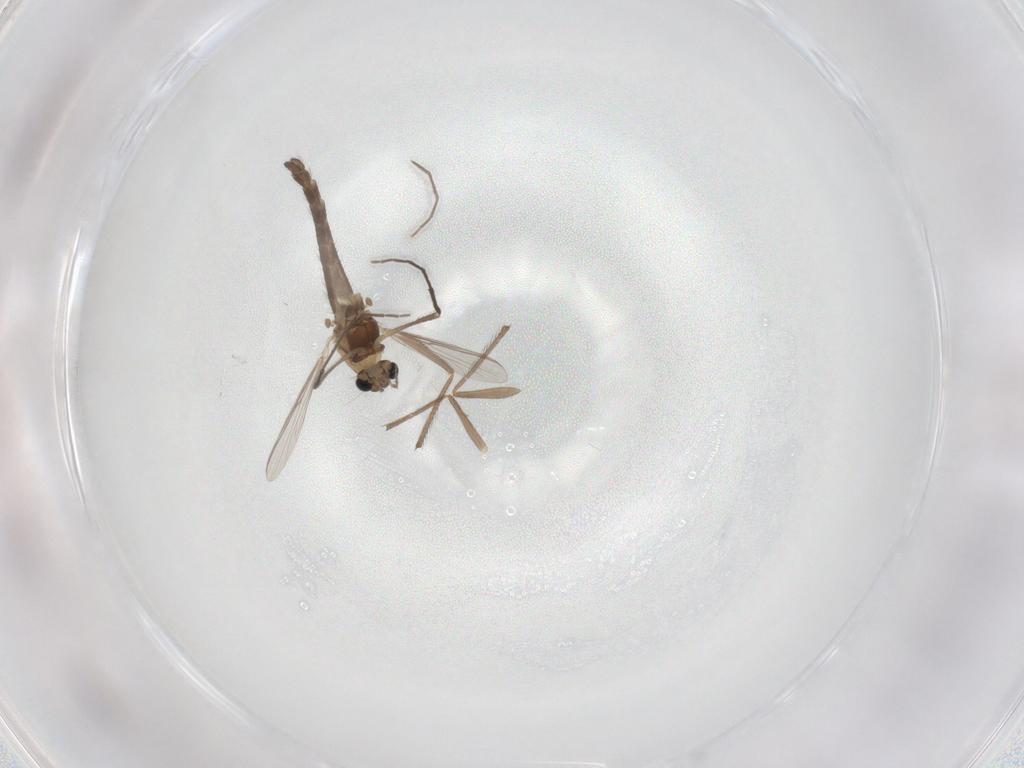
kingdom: Animalia
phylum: Arthropoda
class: Insecta
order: Diptera
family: Chironomidae
